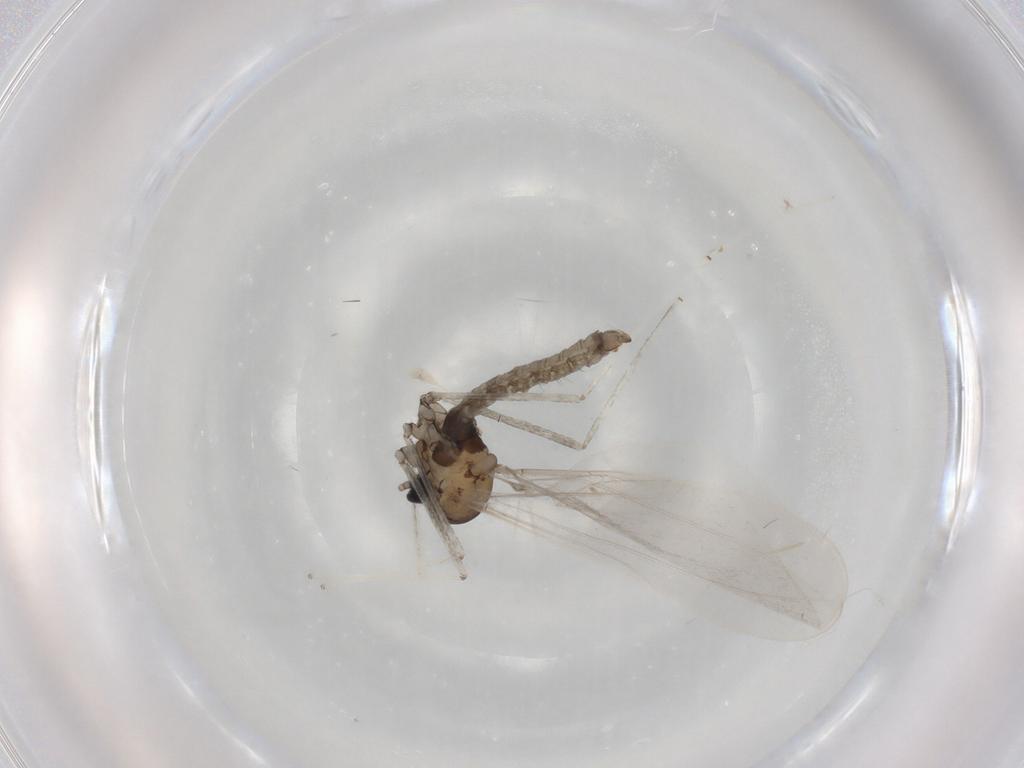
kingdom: Animalia
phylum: Arthropoda
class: Insecta
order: Diptera
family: Cecidomyiidae
